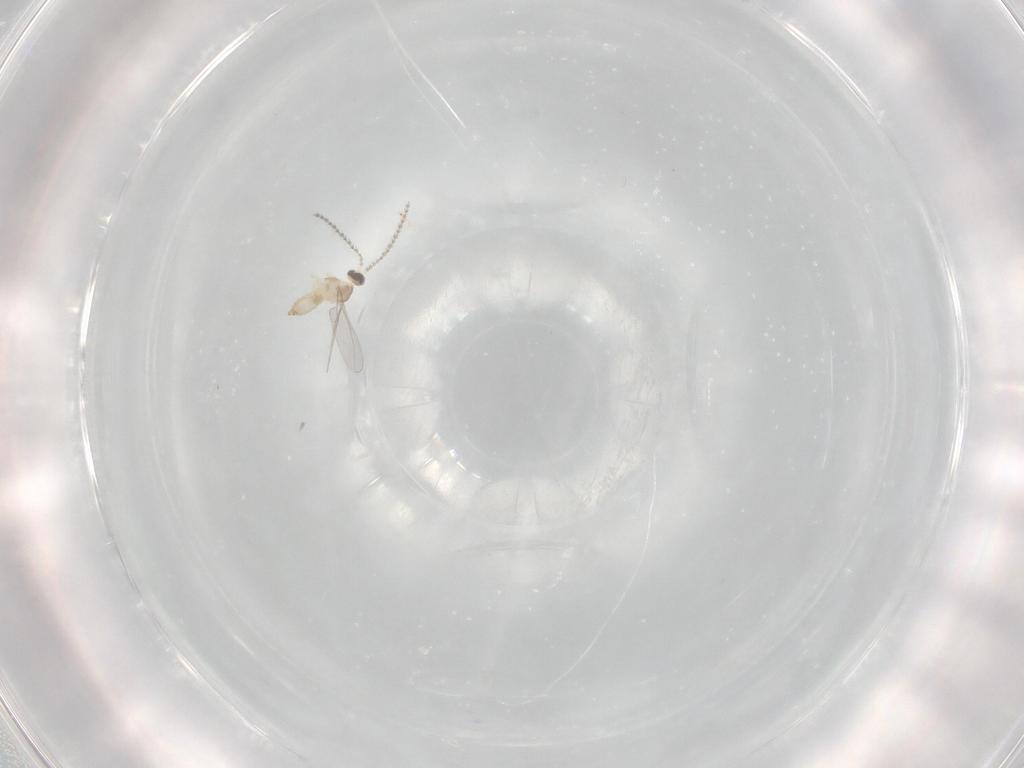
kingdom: Animalia
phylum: Arthropoda
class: Insecta
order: Diptera
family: Sciaridae
